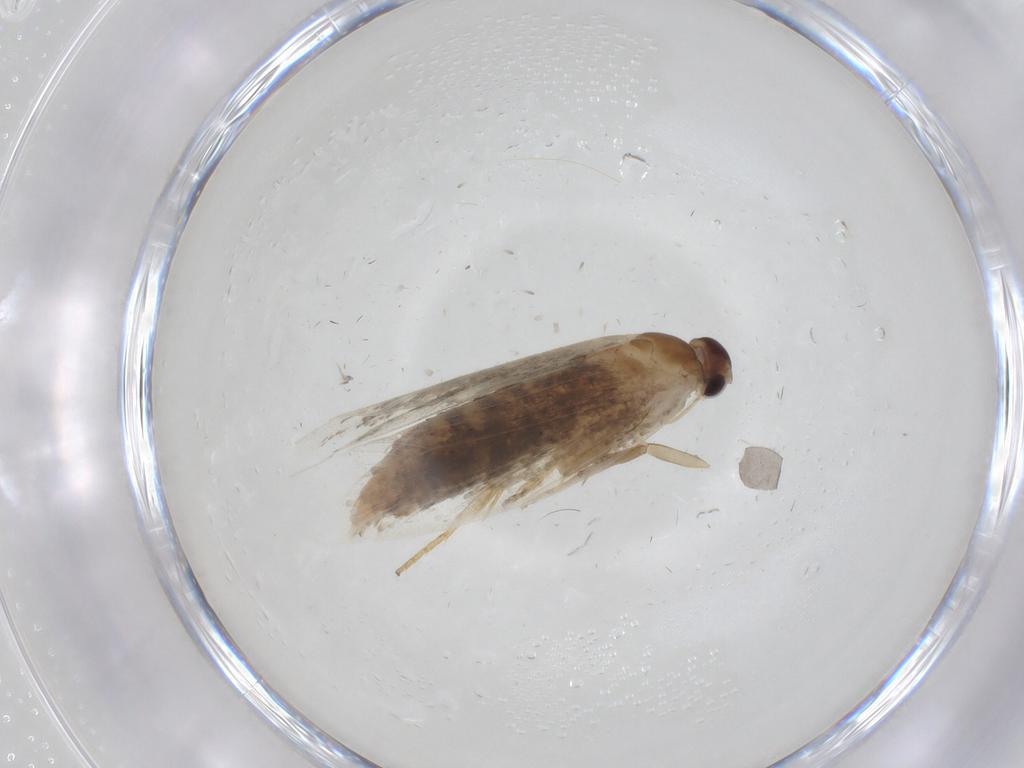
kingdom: Animalia
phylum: Arthropoda
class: Insecta
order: Lepidoptera
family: Oecophoridae
